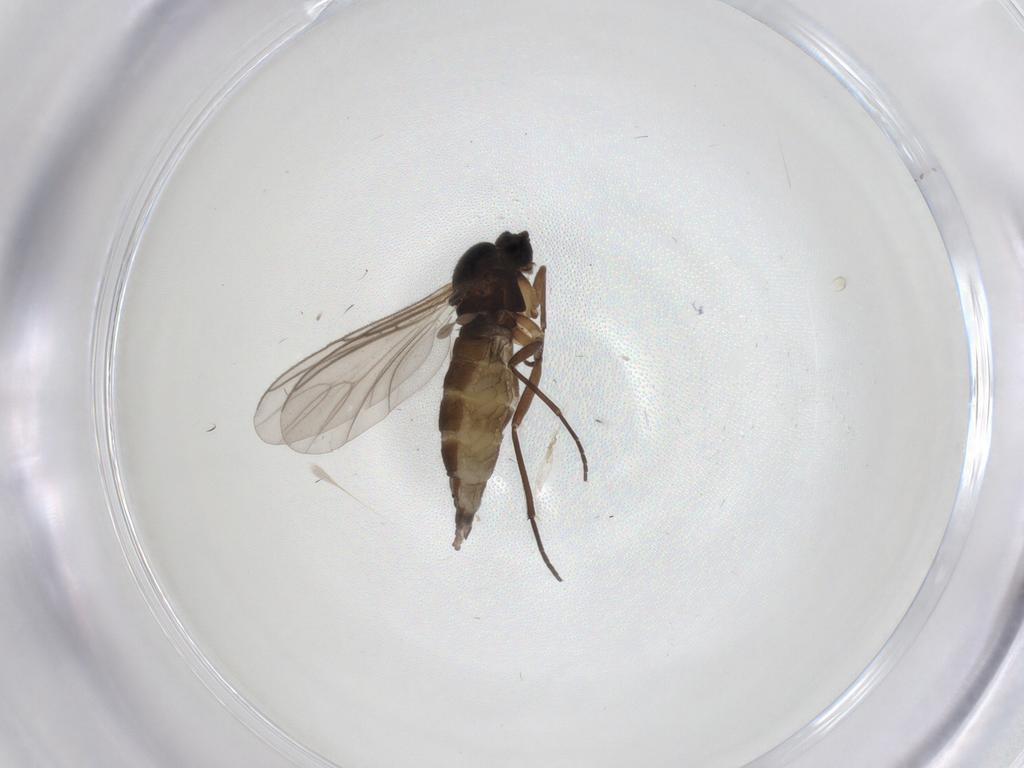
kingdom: Animalia
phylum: Arthropoda
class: Insecta
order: Diptera
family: Sciaridae
